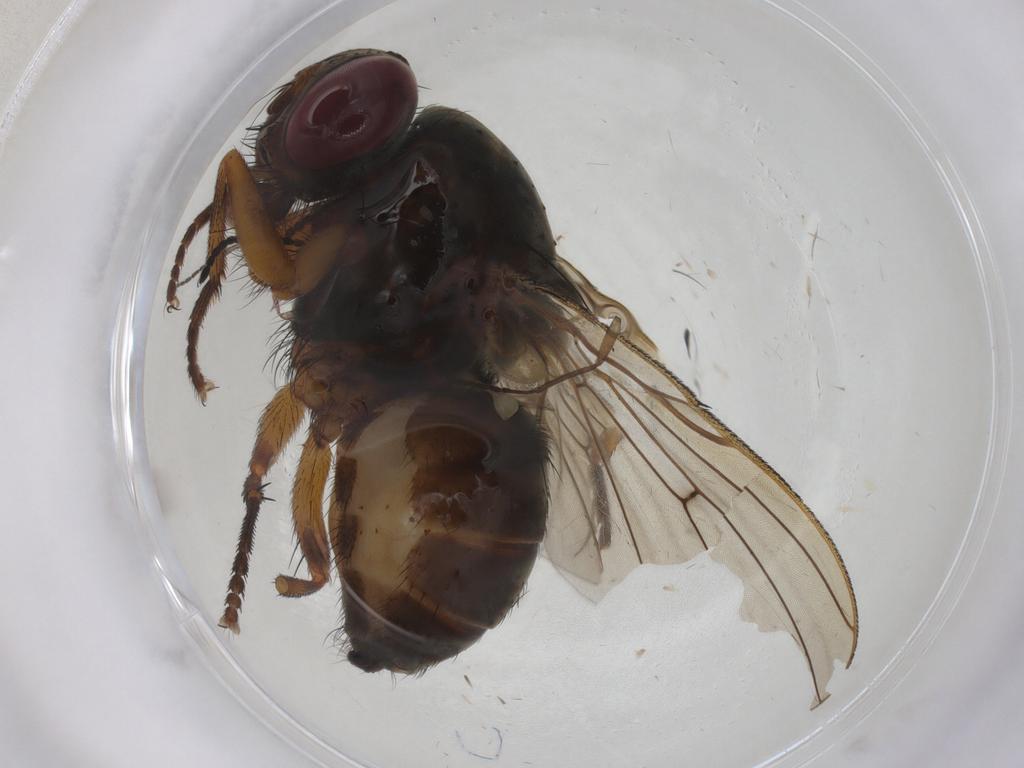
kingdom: Animalia
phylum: Arthropoda
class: Insecta
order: Diptera
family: Muscidae
